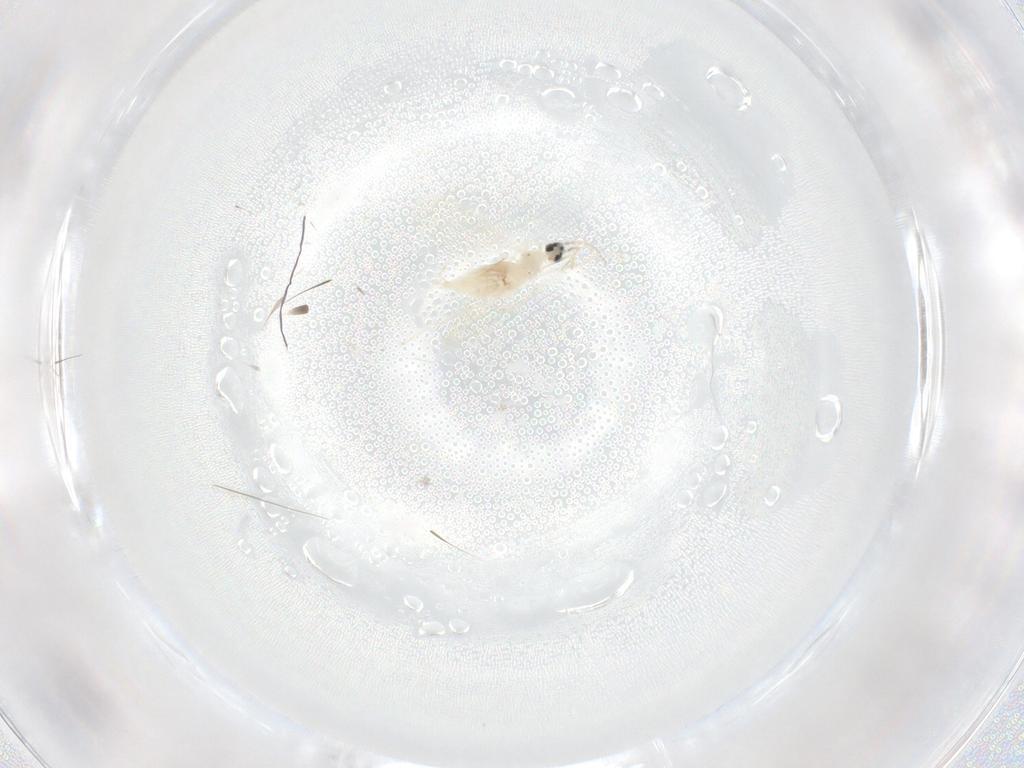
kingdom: Animalia
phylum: Arthropoda
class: Insecta
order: Diptera
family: Cecidomyiidae
